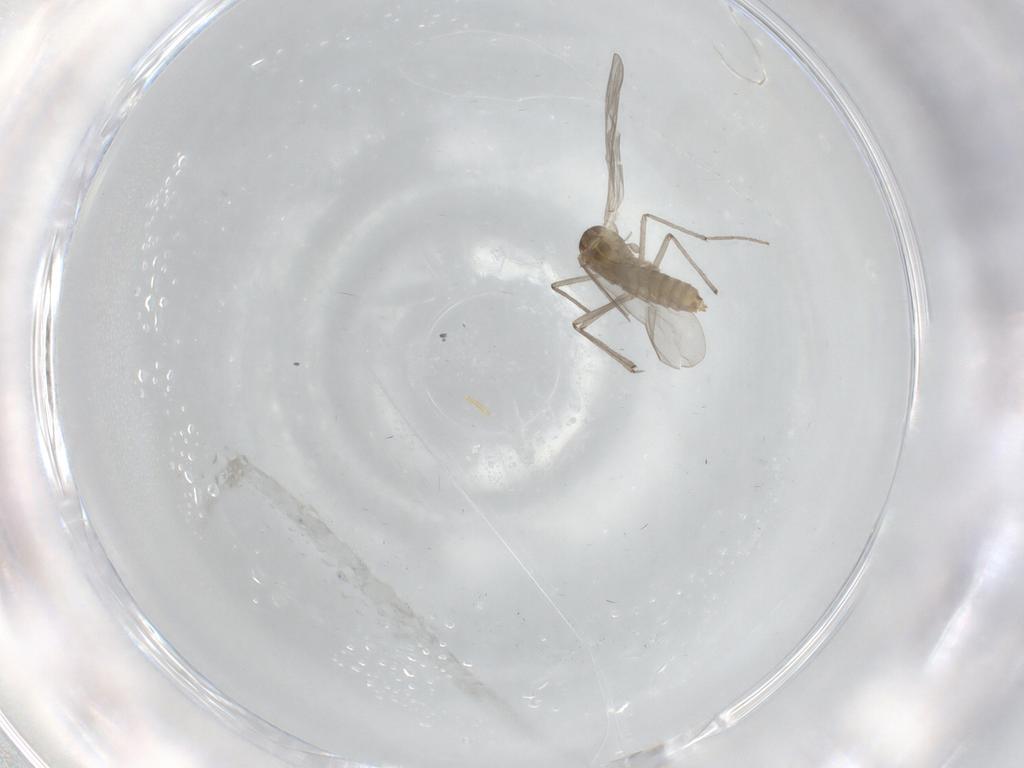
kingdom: Animalia
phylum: Arthropoda
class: Insecta
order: Diptera
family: Chironomidae
